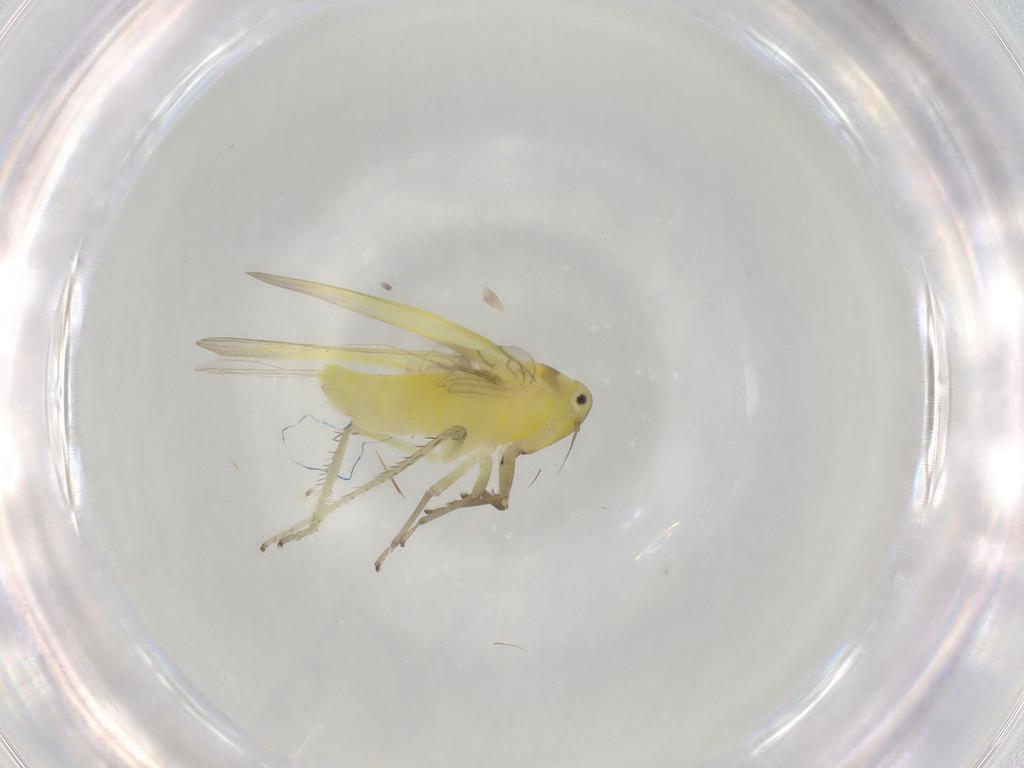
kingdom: Animalia
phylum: Arthropoda
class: Insecta
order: Hemiptera
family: Cicadellidae
